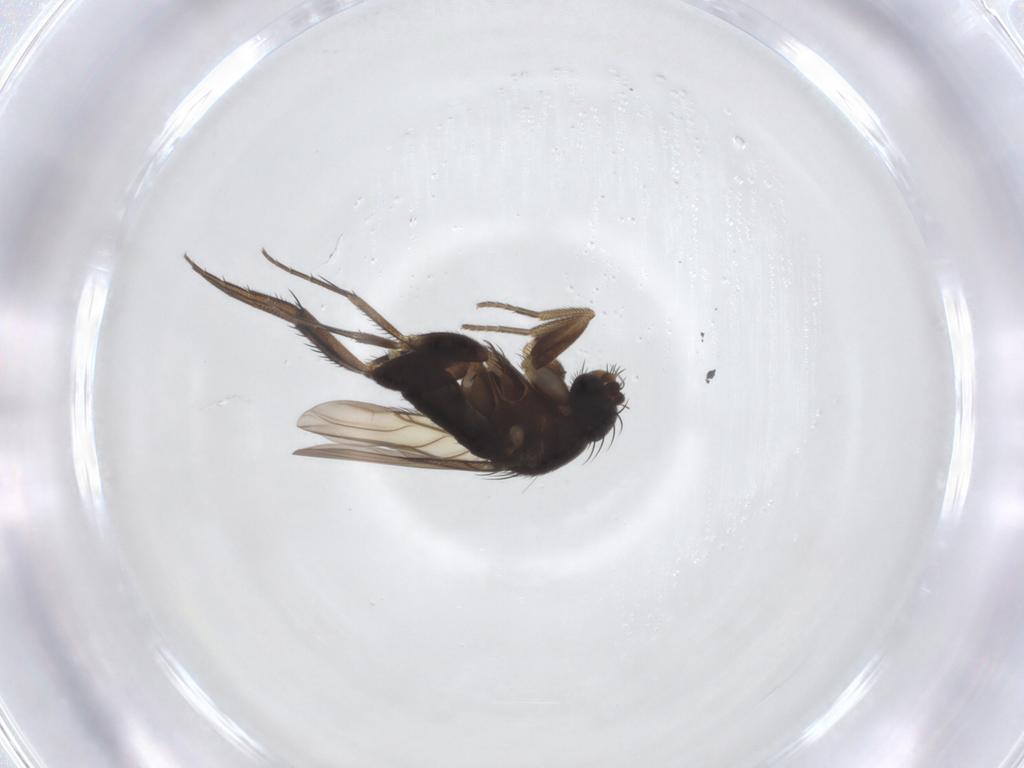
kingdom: Animalia
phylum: Arthropoda
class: Insecta
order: Diptera
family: Phoridae
